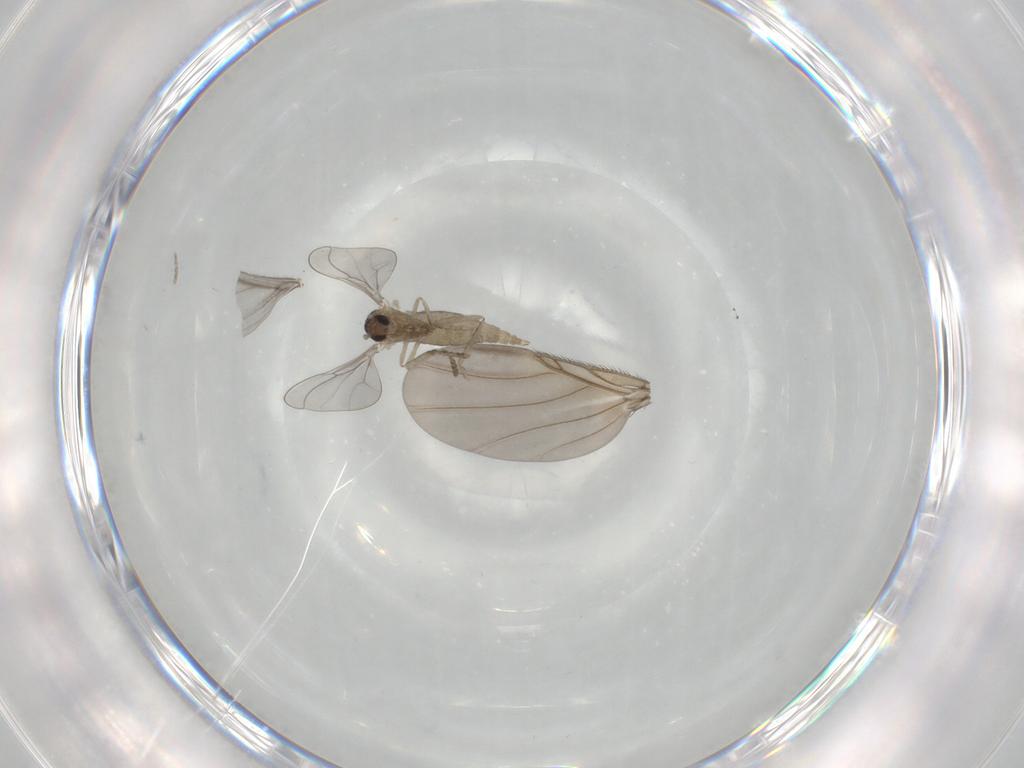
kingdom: Animalia
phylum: Arthropoda
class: Insecta
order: Diptera
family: Phoridae
